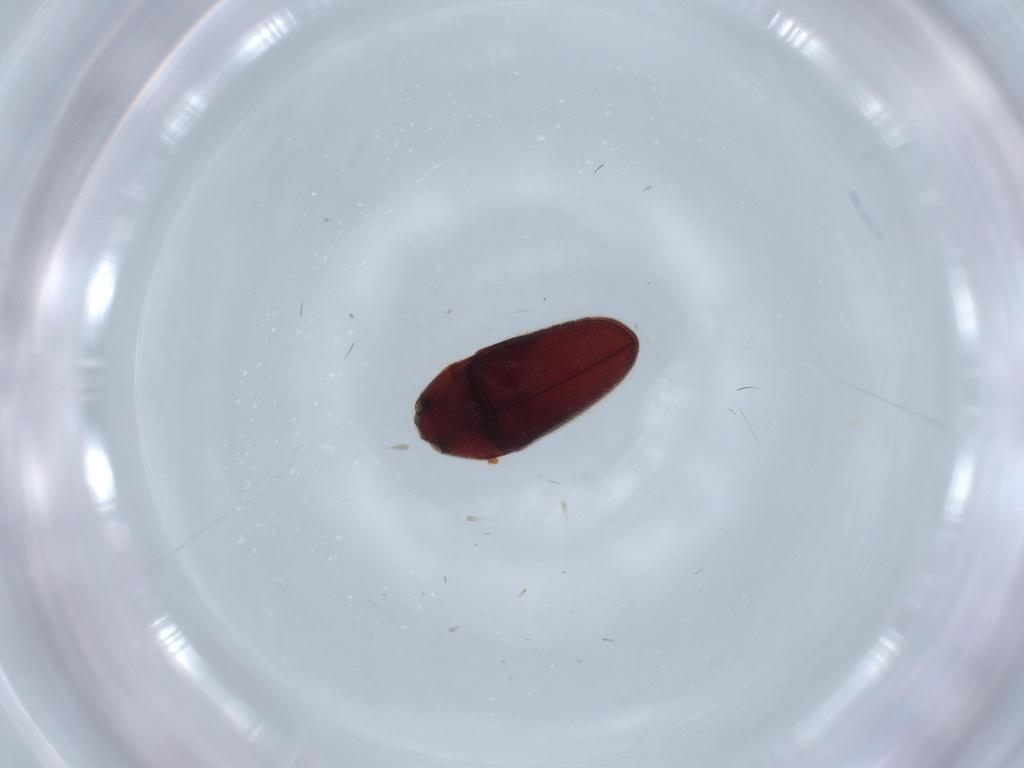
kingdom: Animalia
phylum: Arthropoda
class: Insecta
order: Coleoptera
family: Throscidae
